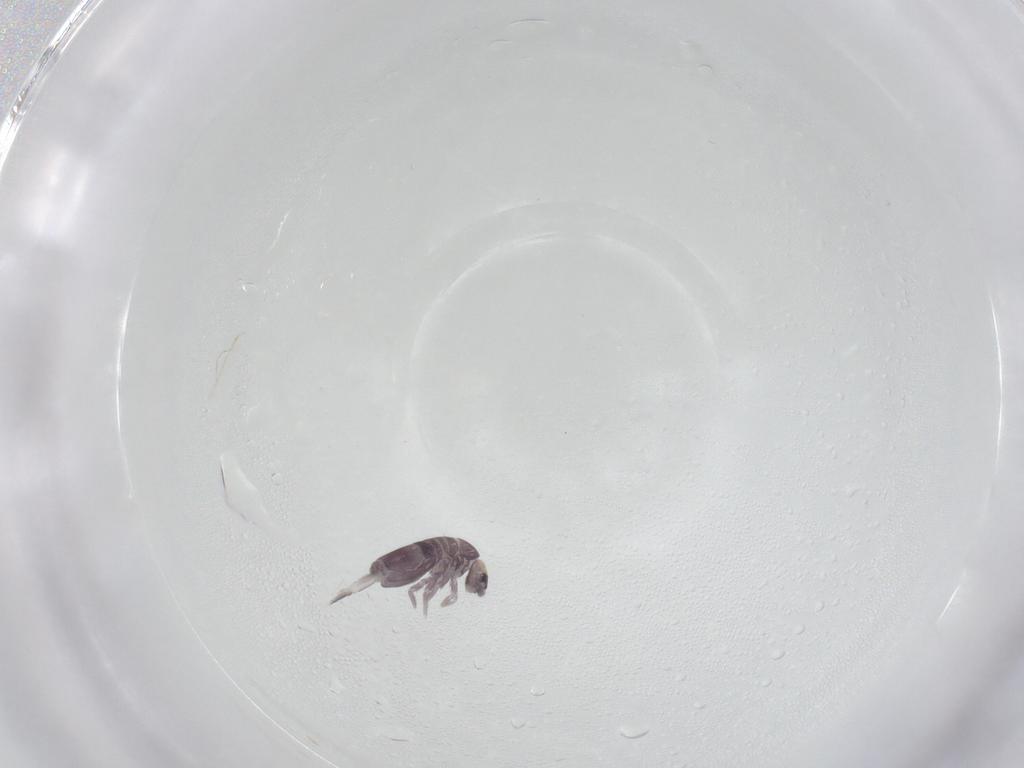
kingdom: Animalia
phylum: Arthropoda
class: Collembola
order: Entomobryomorpha
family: Entomobryidae
